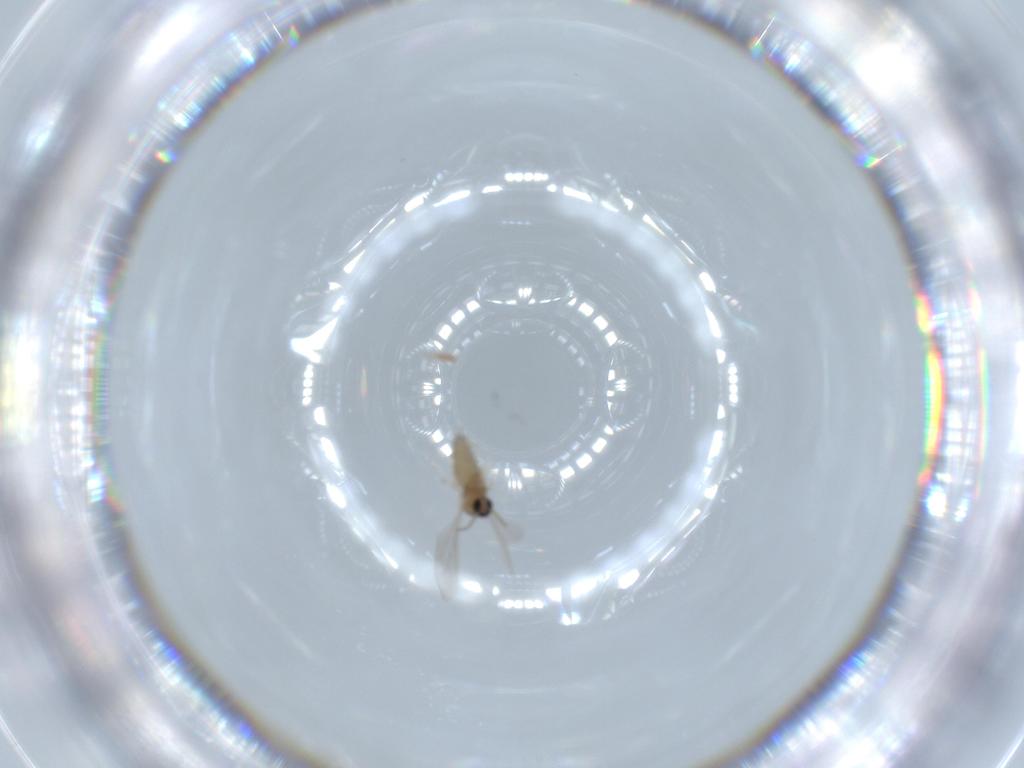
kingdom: Animalia
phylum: Arthropoda
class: Insecta
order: Diptera
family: Cecidomyiidae
